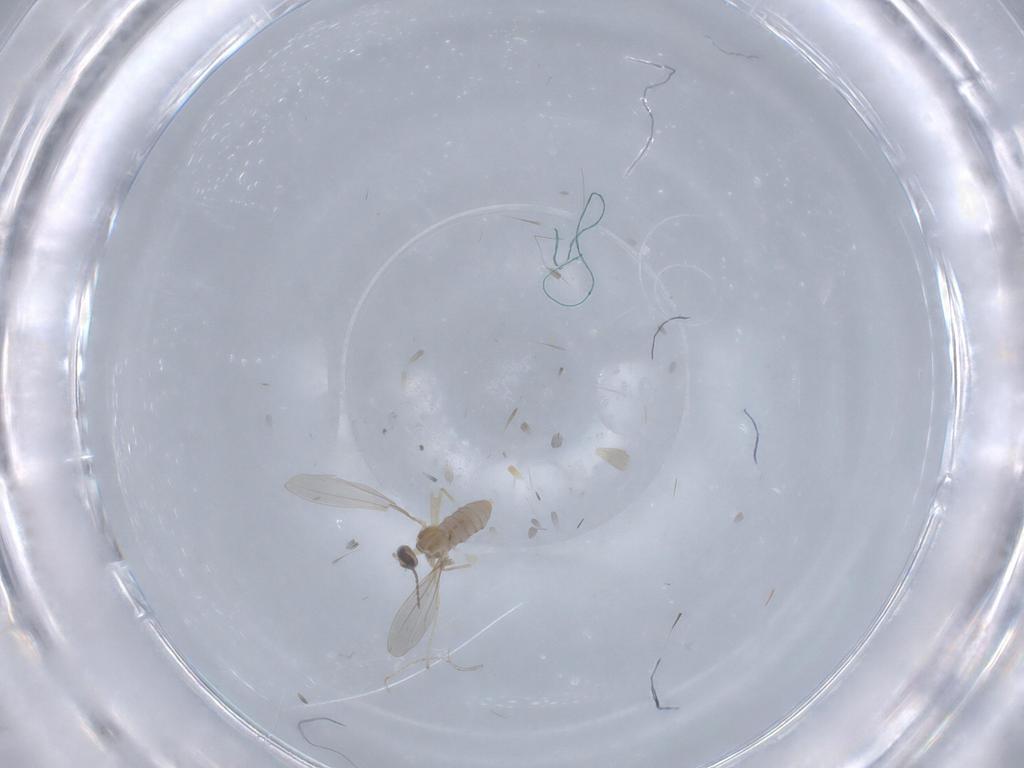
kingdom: Animalia
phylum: Arthropoda
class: Insecta
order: Diptera
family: Cecidomyiidae
